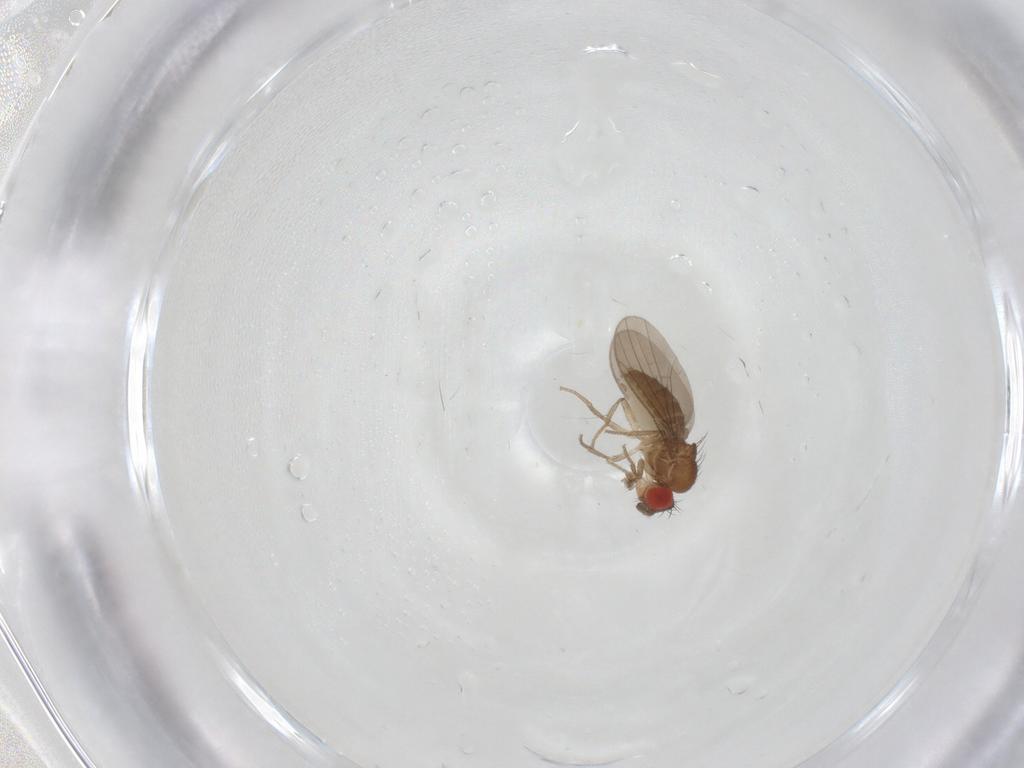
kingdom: Animalia
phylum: Arthropoda
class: Insecta
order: Diptera
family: Drosophilidae
